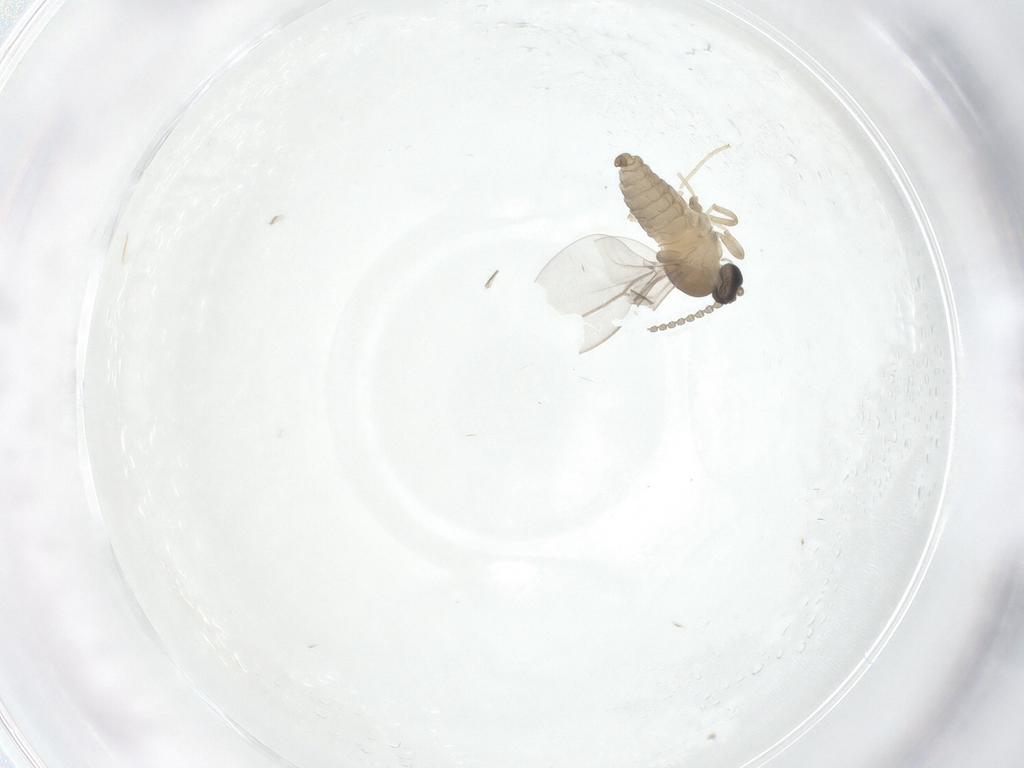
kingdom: Animalia
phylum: Arthropoda
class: Insecta
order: Diptera
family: Cecidomyiidae
